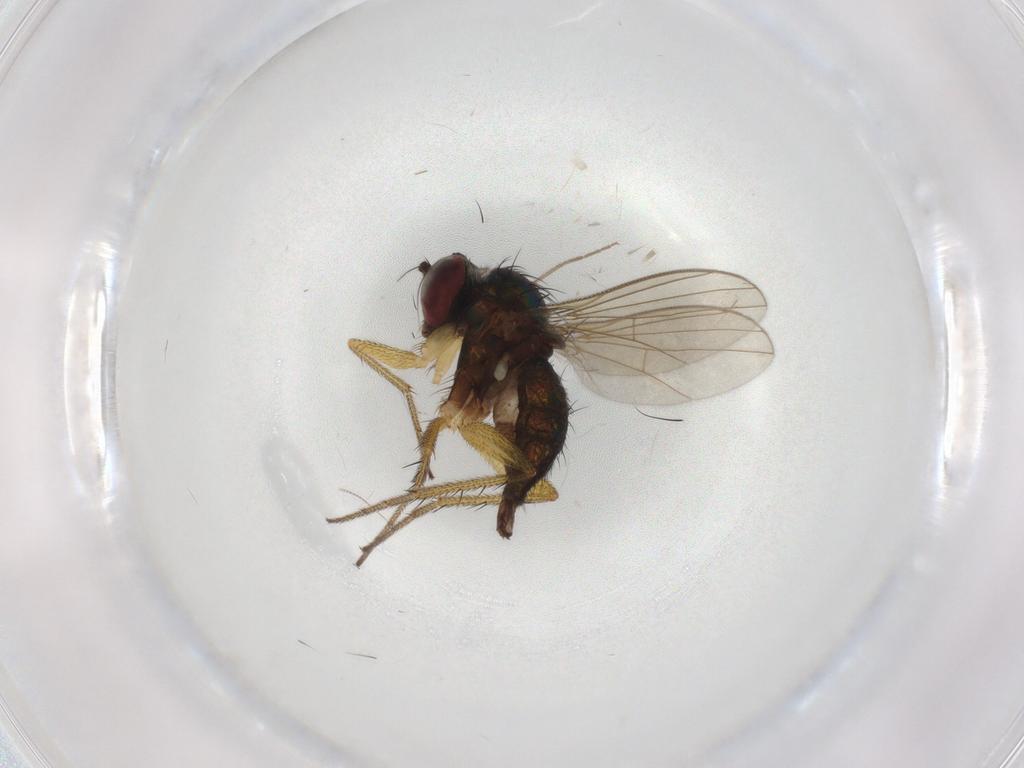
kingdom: Animalia
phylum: Arthropoda
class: Insecta
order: Diptera
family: Dolichopodidae
